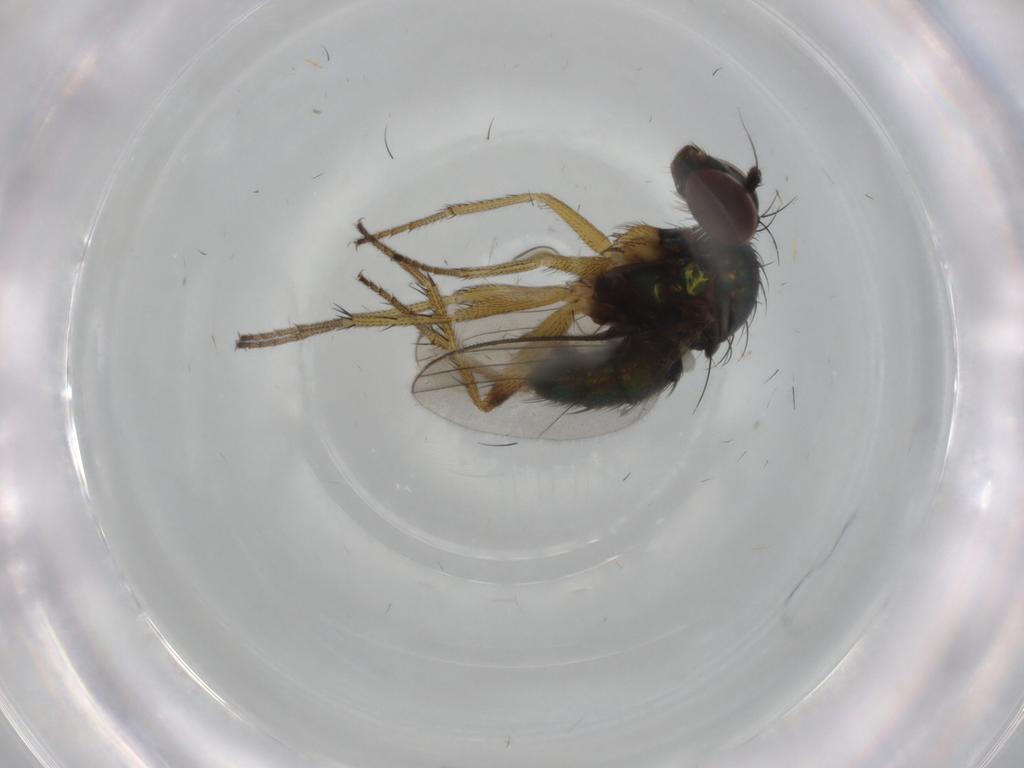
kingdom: Animalia
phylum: Arthropoda
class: Insecta
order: Diptera
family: Dolichopodidae
